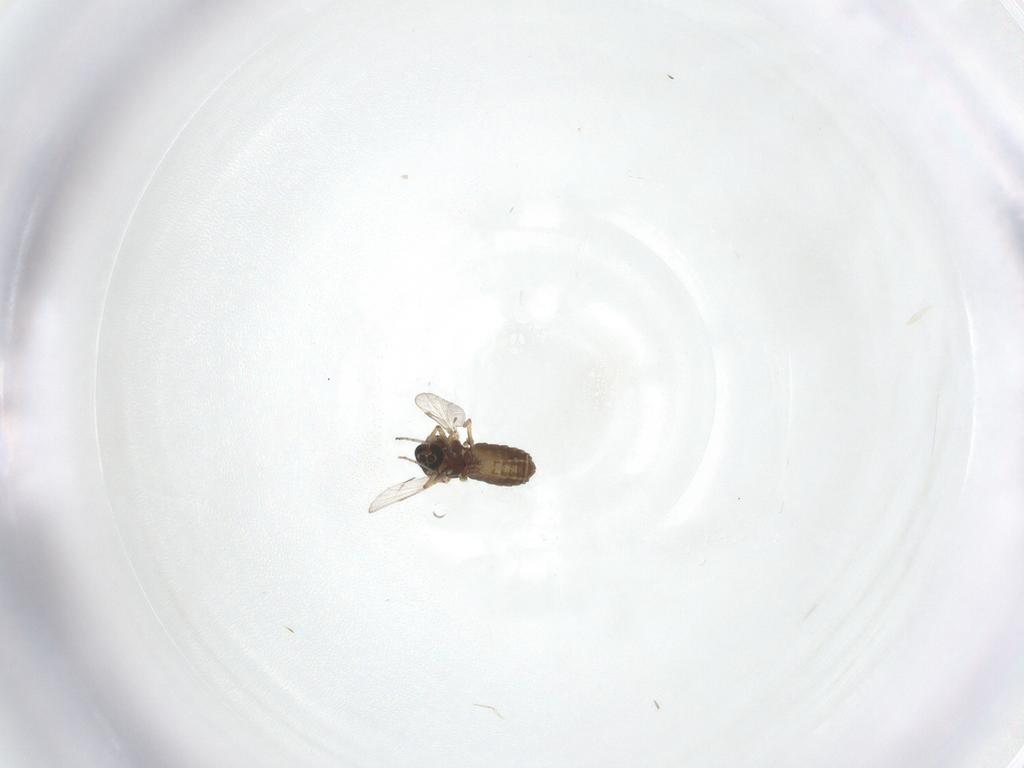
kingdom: Animalia
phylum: Arthropoda
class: Insecta
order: Diptera
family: Ceratopogonidae
